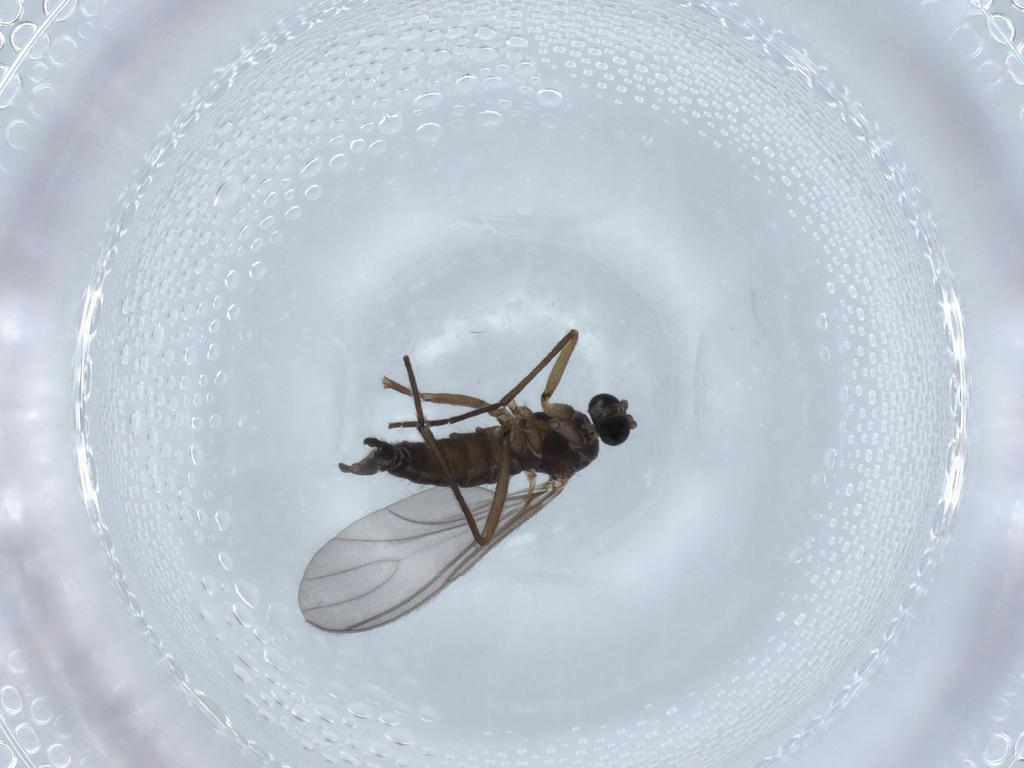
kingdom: Animalia
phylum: Arthropoda
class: Insecta
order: Diptera
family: Sciaridae
